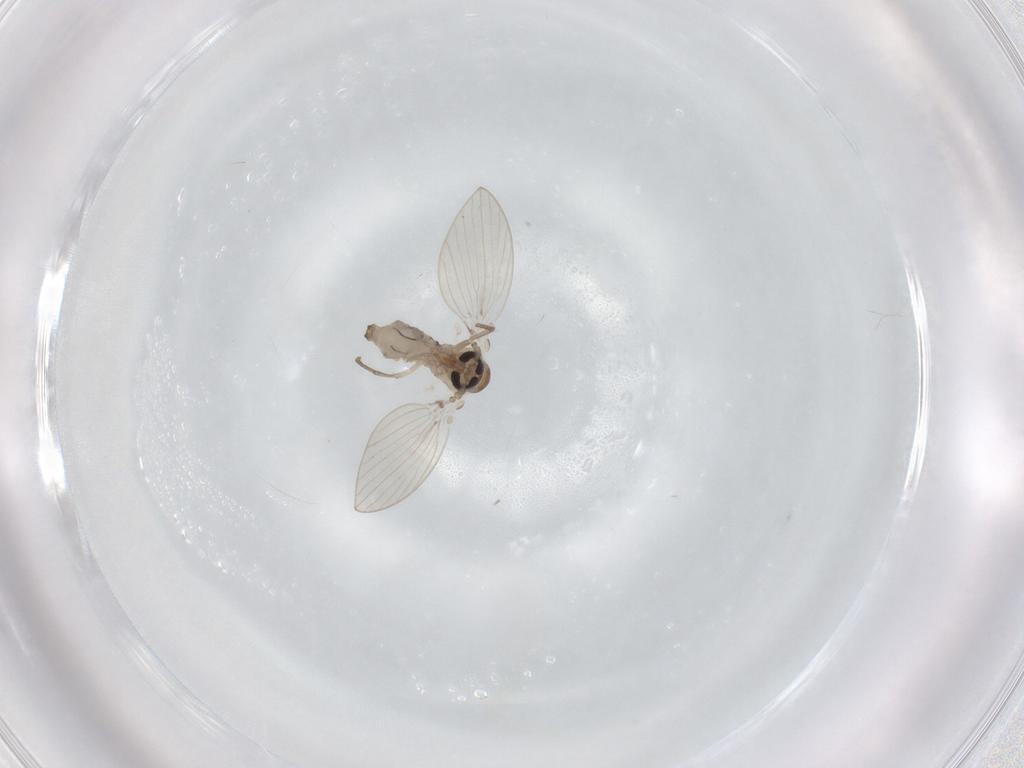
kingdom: Animalia
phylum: Arthropoda
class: Insecta
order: Diptera
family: Psychodidae
